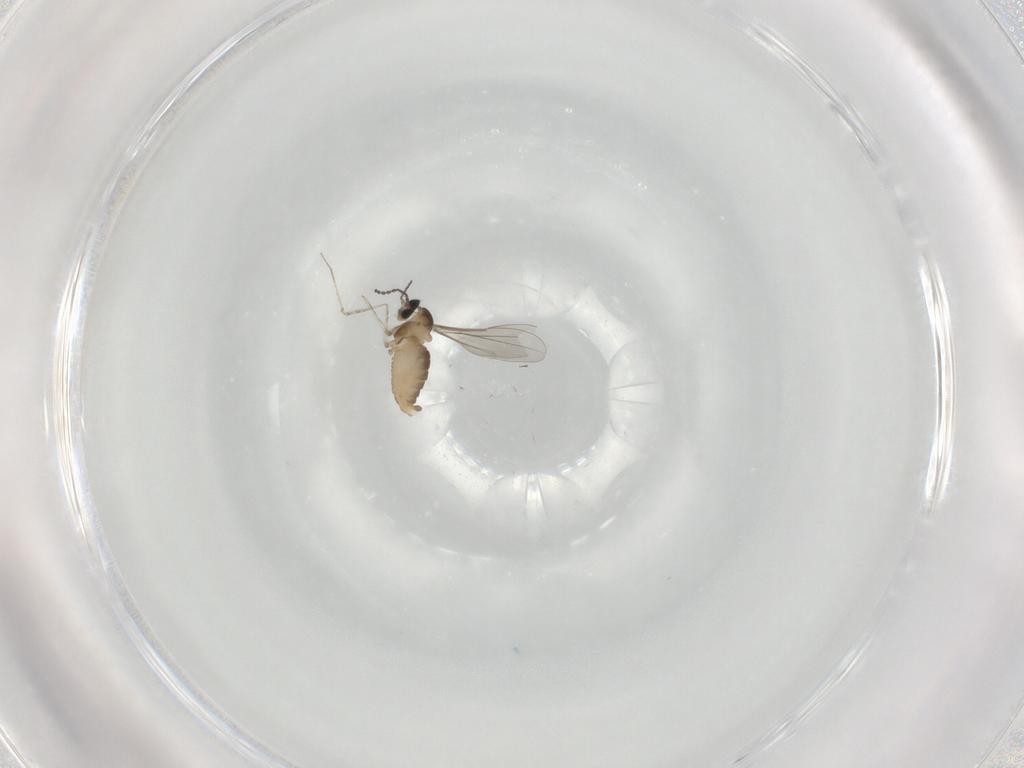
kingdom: Animalia
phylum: Arthropoda
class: Insecta
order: Diptera
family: Cecidomyiidae
